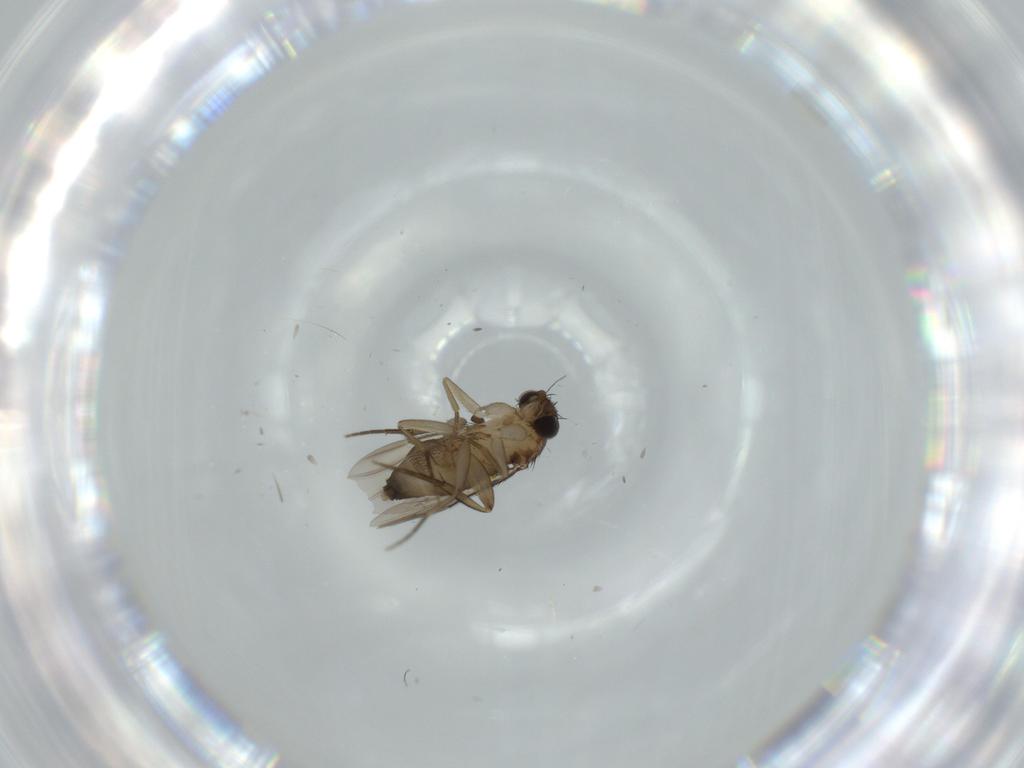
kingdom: Animalia
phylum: Arthropoda
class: Insecta
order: Diptera
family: Phoridae
